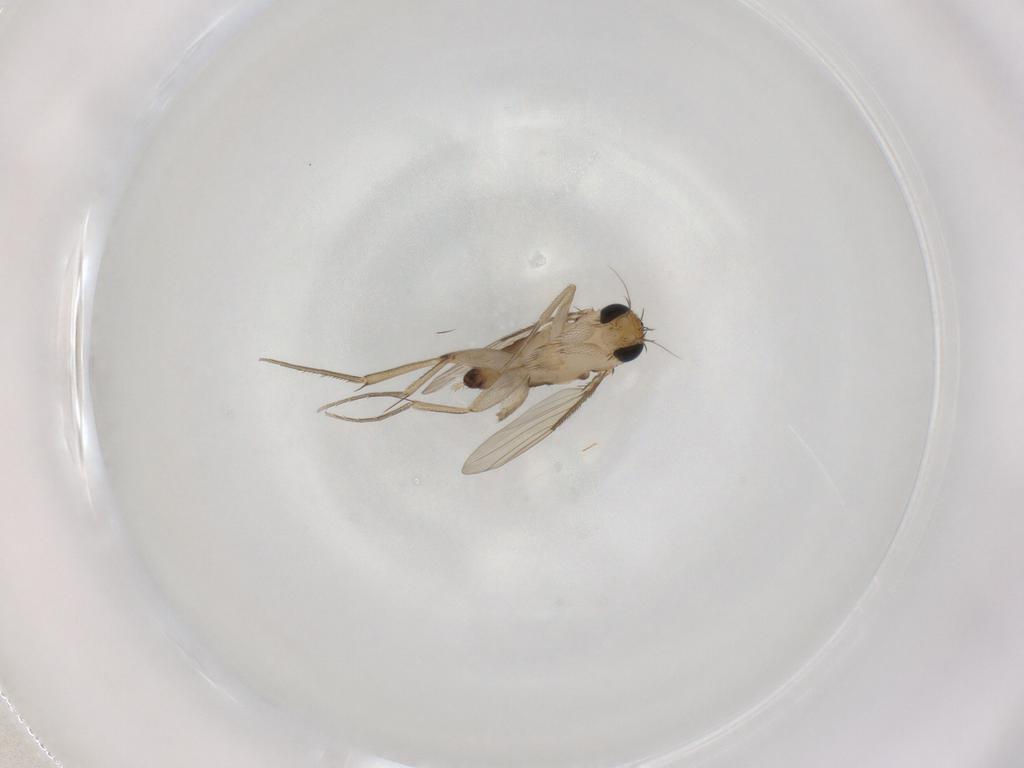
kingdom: Animalia
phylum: Arthropoda
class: Insecta
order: Diptera
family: Phoridae
